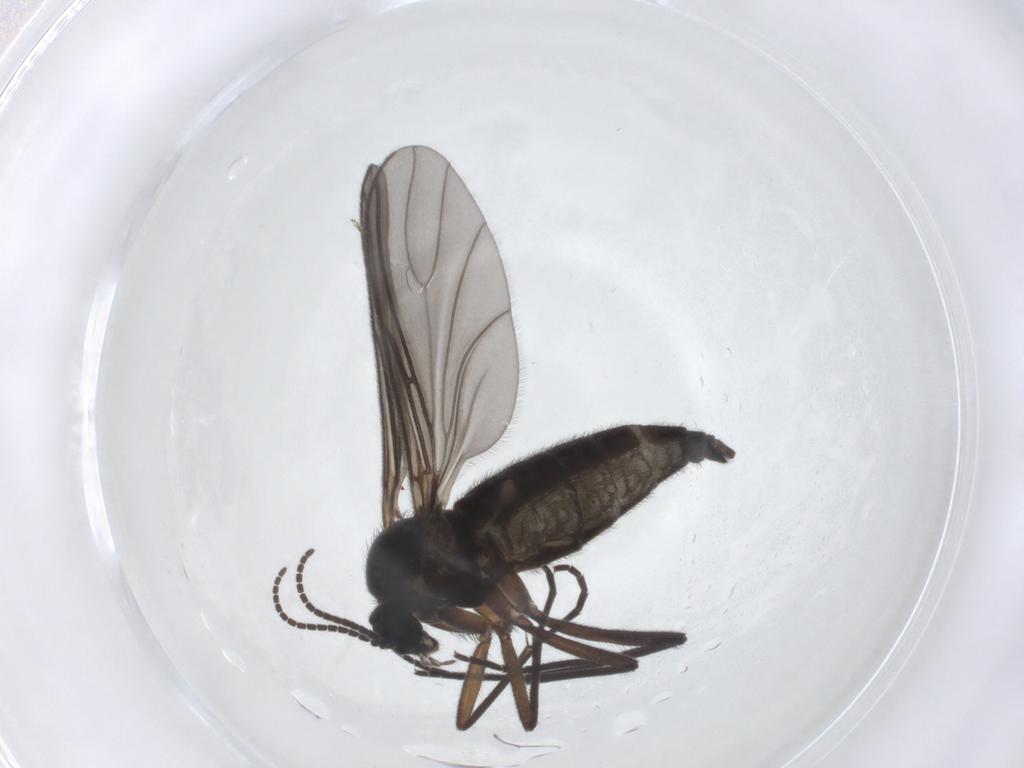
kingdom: Animalia
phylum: Arthropoda
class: Insecta
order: Diptera
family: Sciaridae
